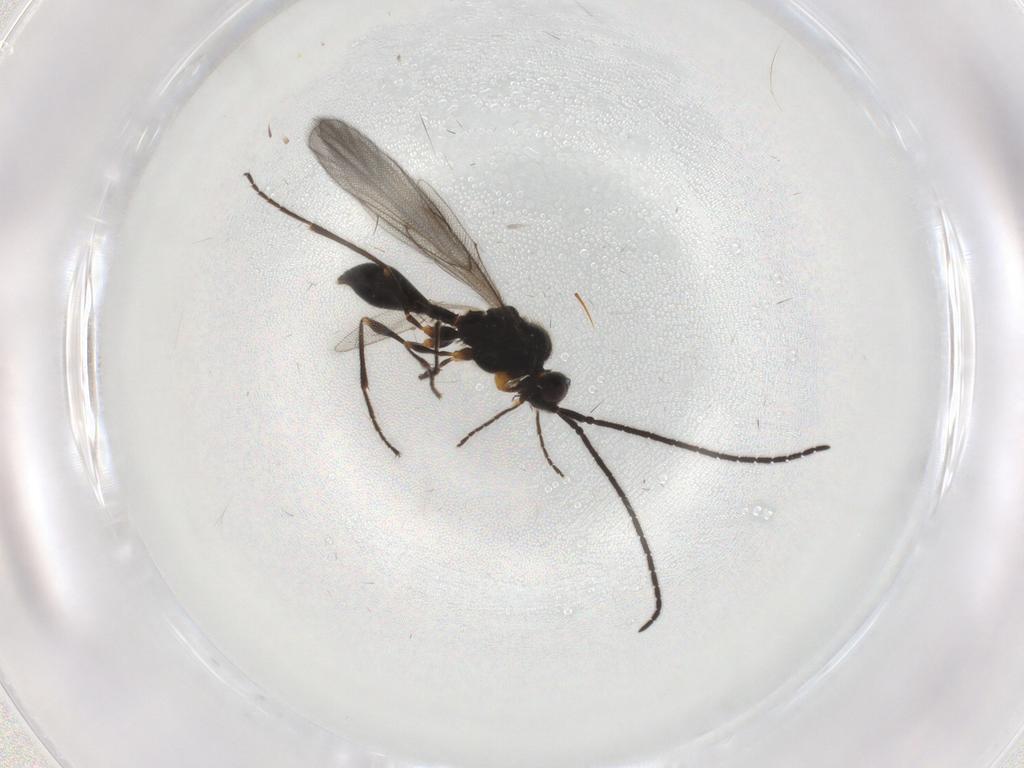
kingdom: Animalia
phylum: Arthropoda
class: Insecta
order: Hymenoptera
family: Diapriidae
